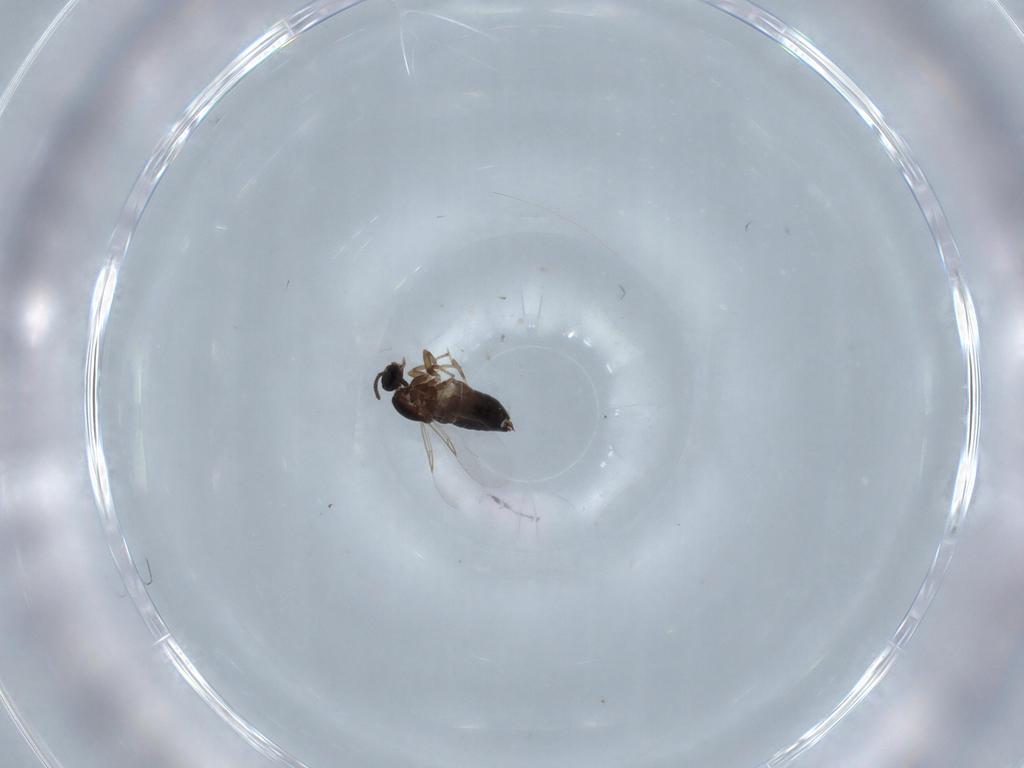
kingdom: Animalia
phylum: Arthropoda
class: Insecta
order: Diptera
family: Scatopsidae
